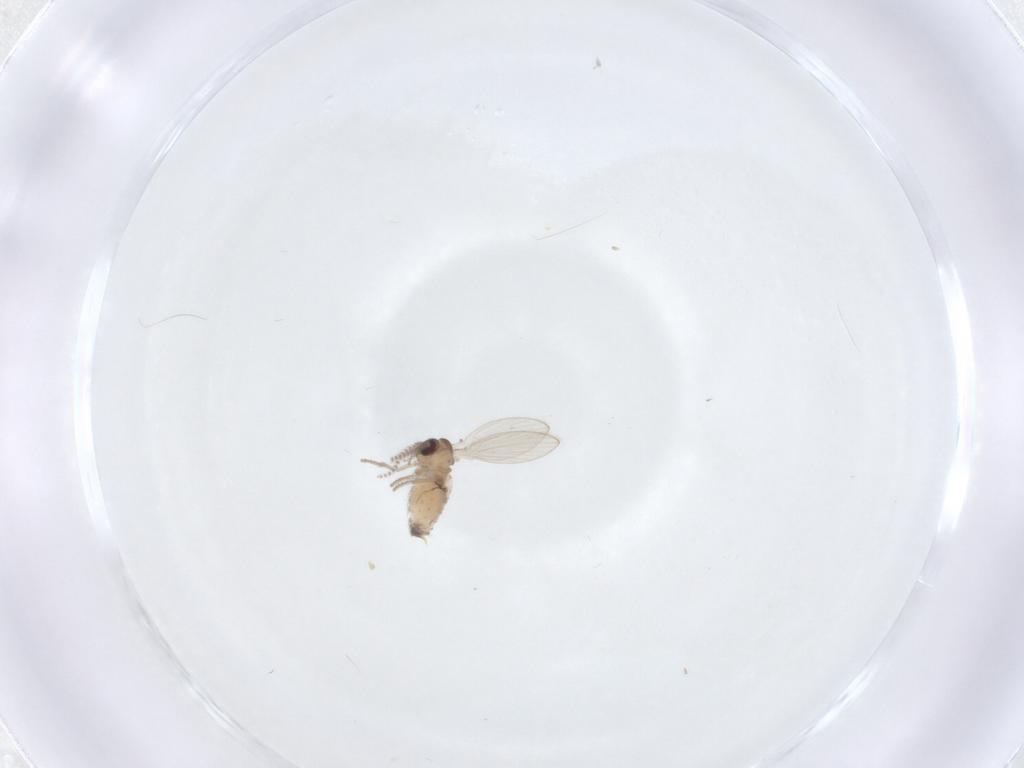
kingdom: Animalia
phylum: Arthropoda
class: Insecta
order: Diptera
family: Psychodidae
